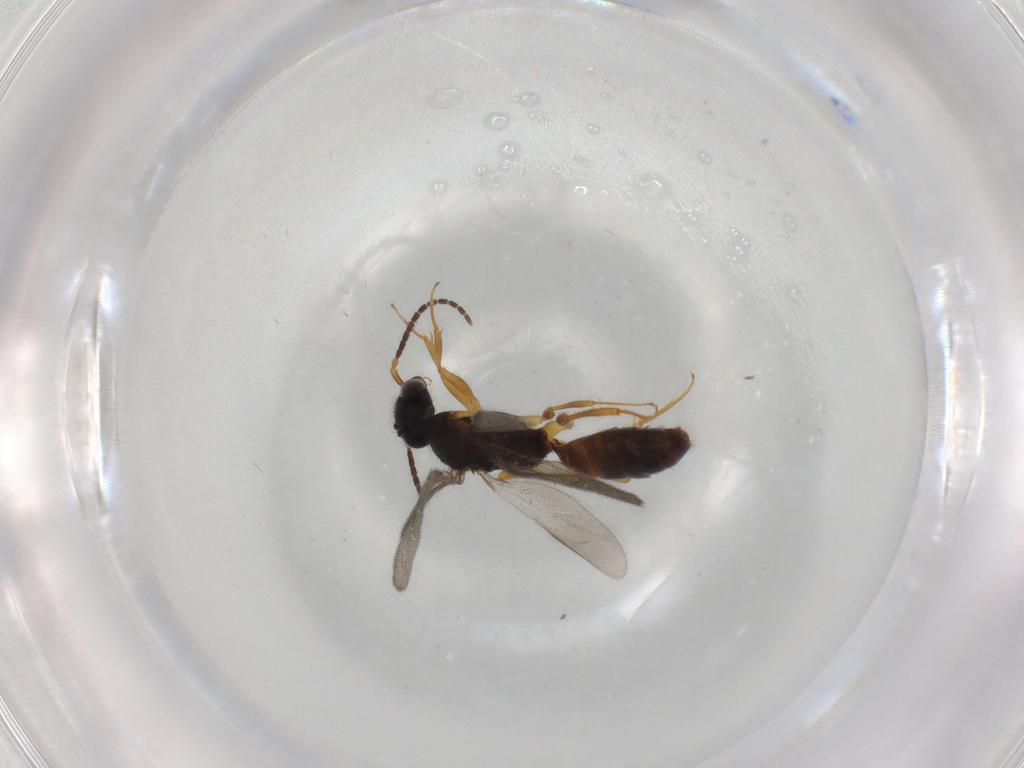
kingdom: Animalia
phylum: Arthropoda
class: Insecta
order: Hymenoptera
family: Bethylidae
